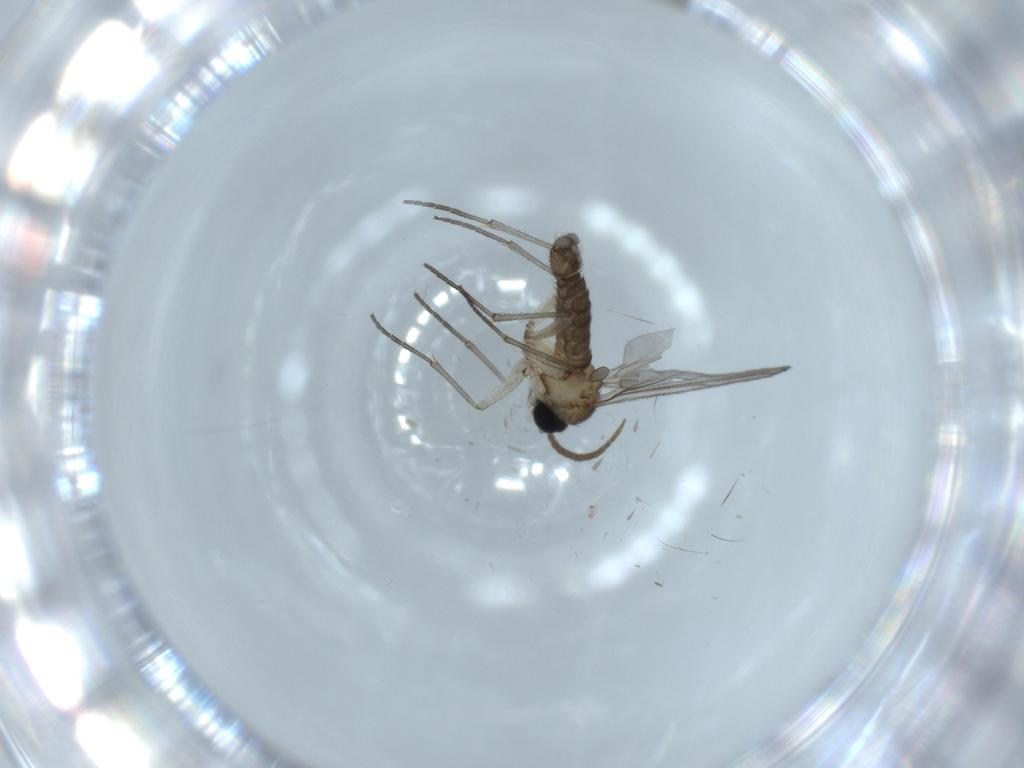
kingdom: Animalia
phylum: Arthropoda
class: Insecta
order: Diptera
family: Sciaridae
